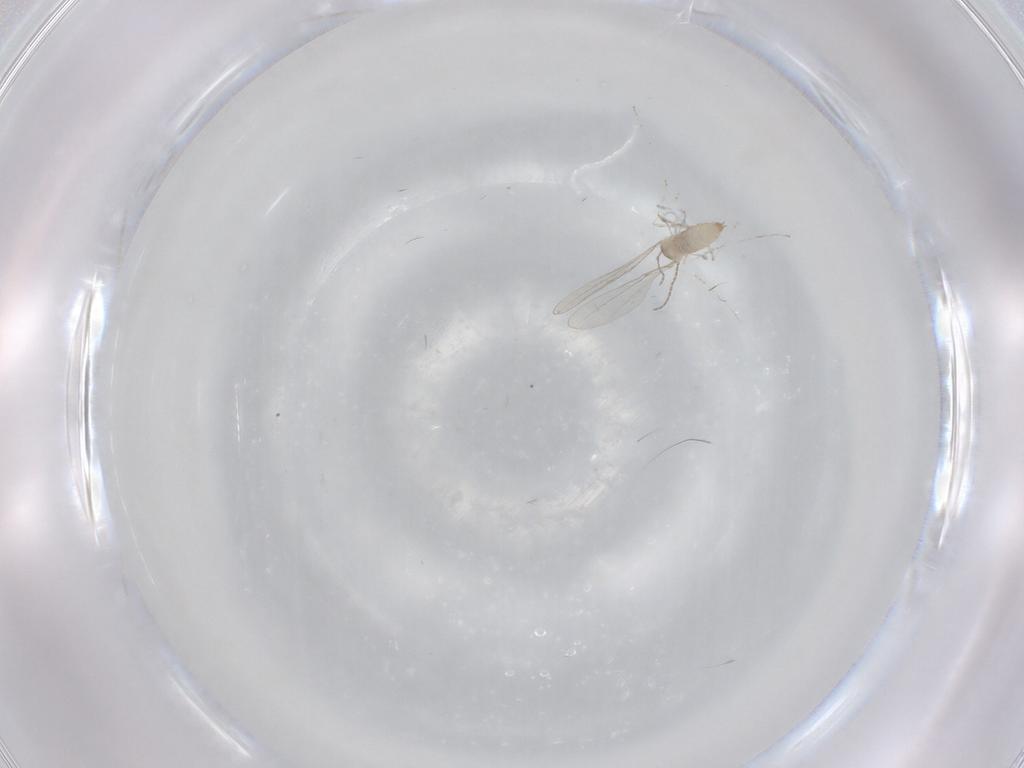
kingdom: Animalia
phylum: Arthropoda
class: Insecta
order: Diptera
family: Cecidomyiidae
